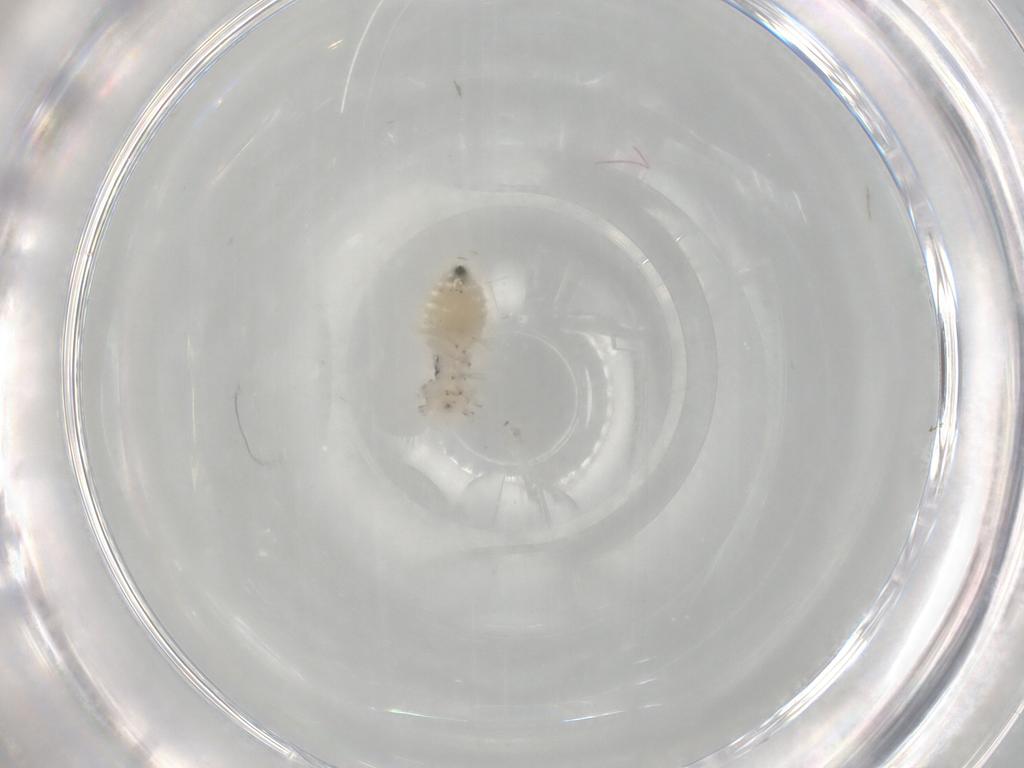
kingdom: Animalia
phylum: Arthropoda
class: Insecta
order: Psocodea
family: Pseudocaeciliidae
